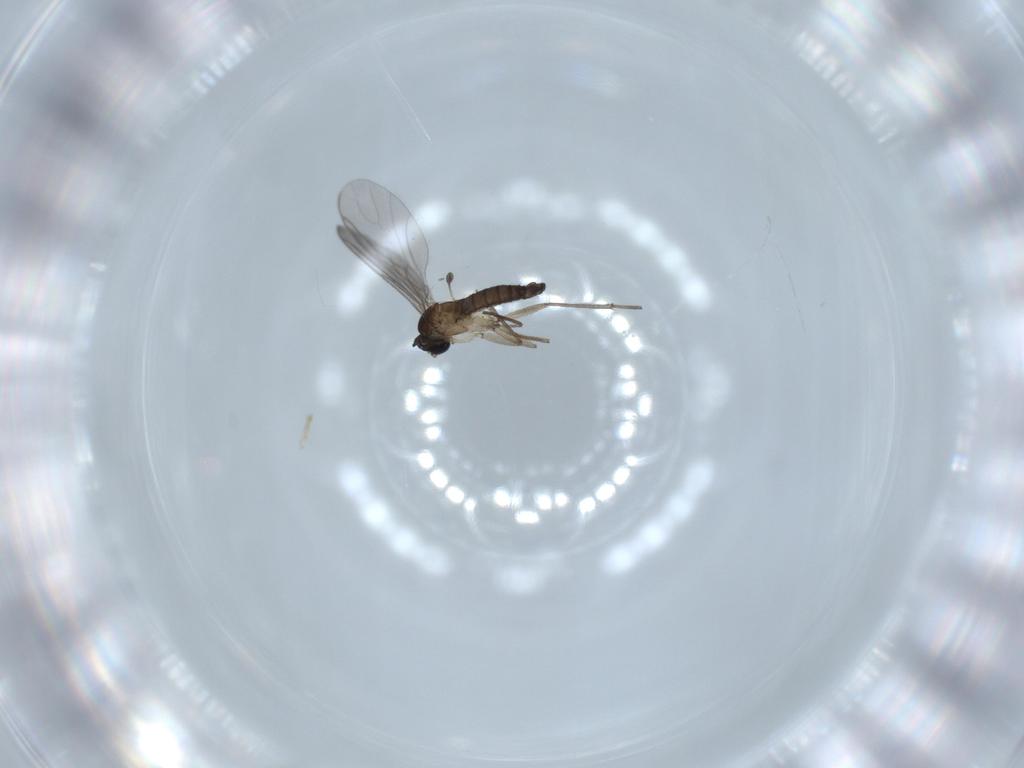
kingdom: Animalia
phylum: Arthropoda
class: Insecta
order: Diptera
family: Sciaridae
